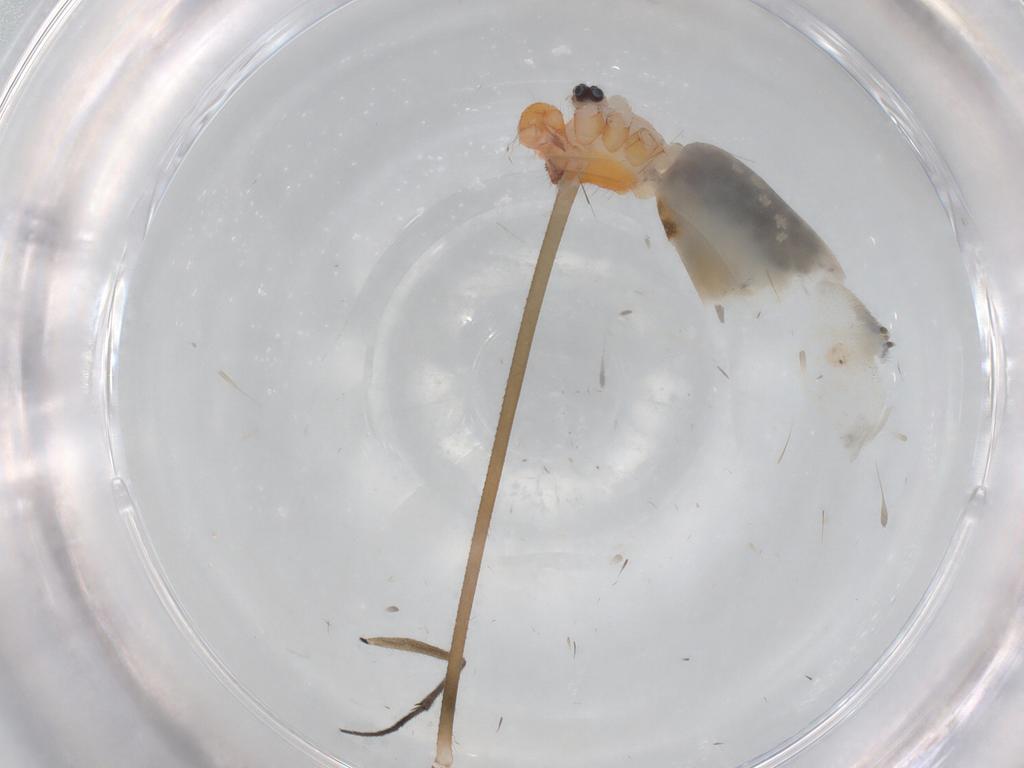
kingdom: Animalia
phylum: Arthropoda
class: Arachnida
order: Araneae
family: Pholcidae
